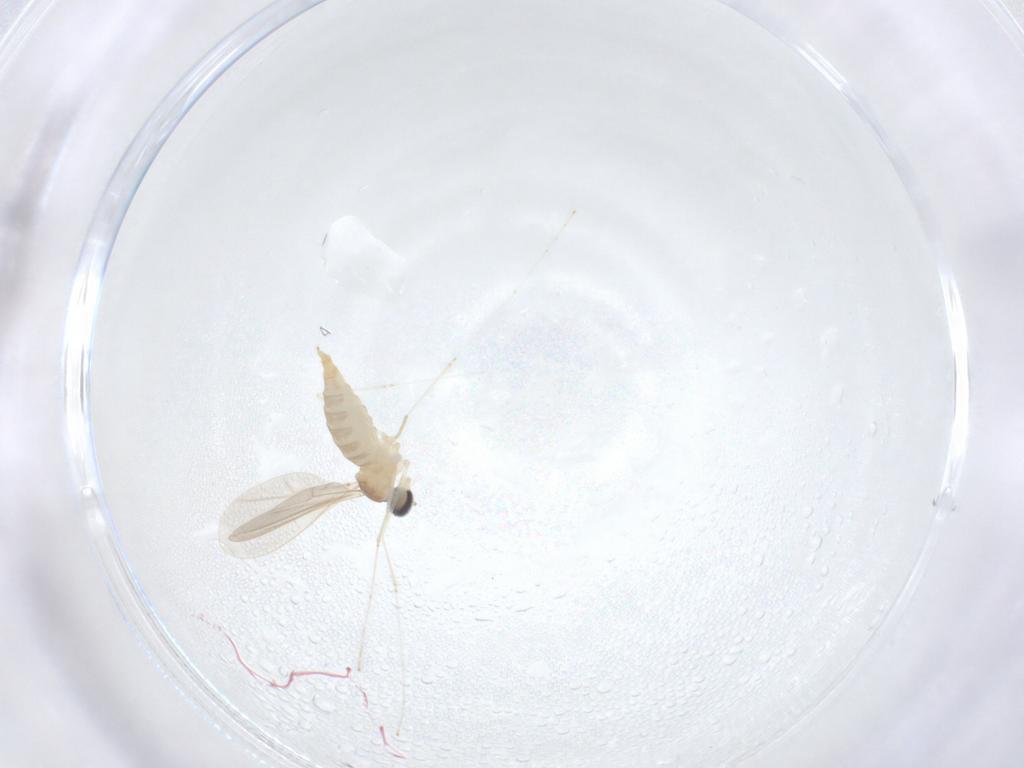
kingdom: Animalia
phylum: Arthropoda
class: Insecta
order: Diptera
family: Cecidomyiidae
